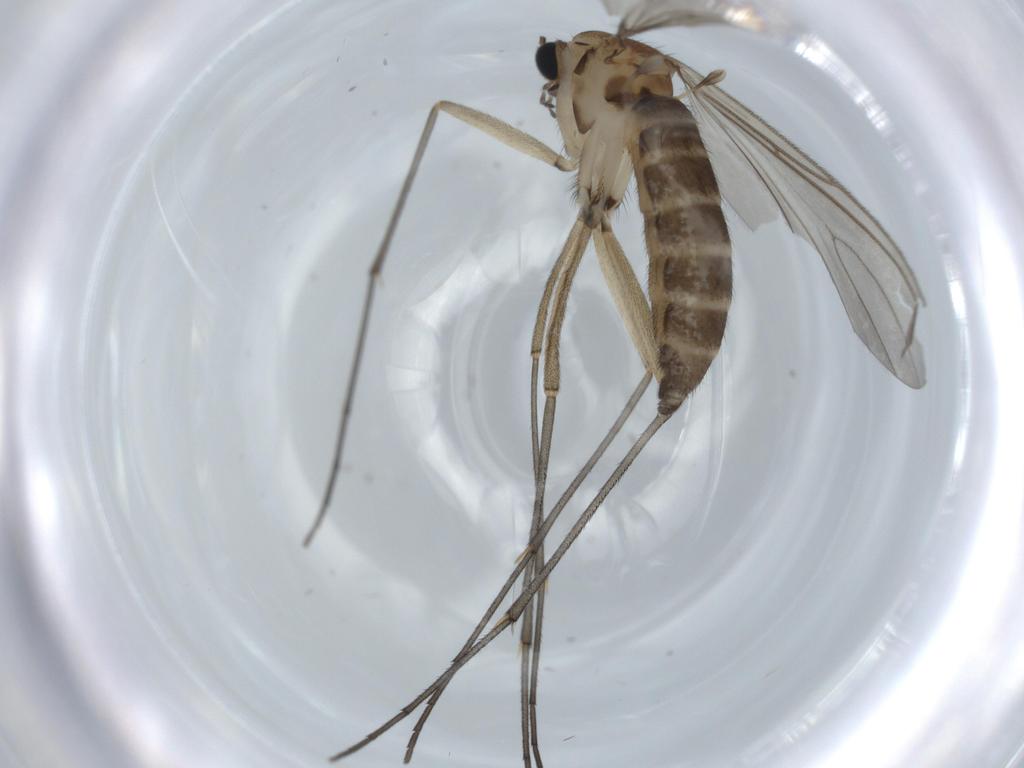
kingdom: Animalia
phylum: Arthropoda
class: Insecta
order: Diptera
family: Sciaridae
